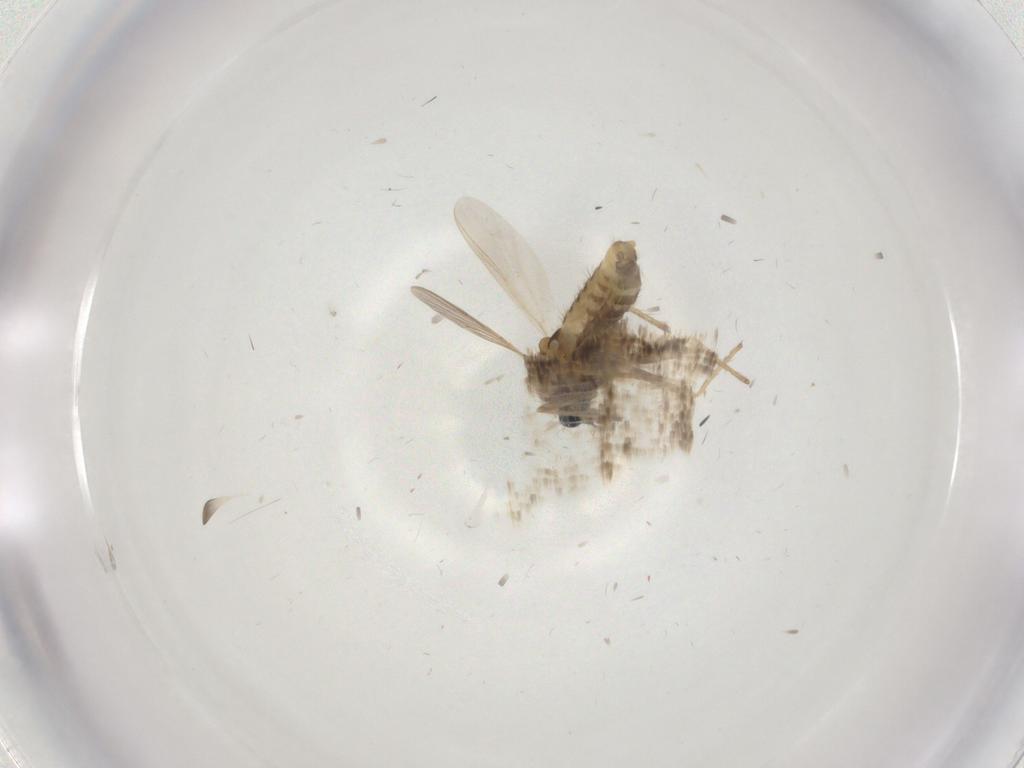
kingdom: Animalia
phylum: Arthropoda
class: Insecta
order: Diptera
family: Chironomidae
